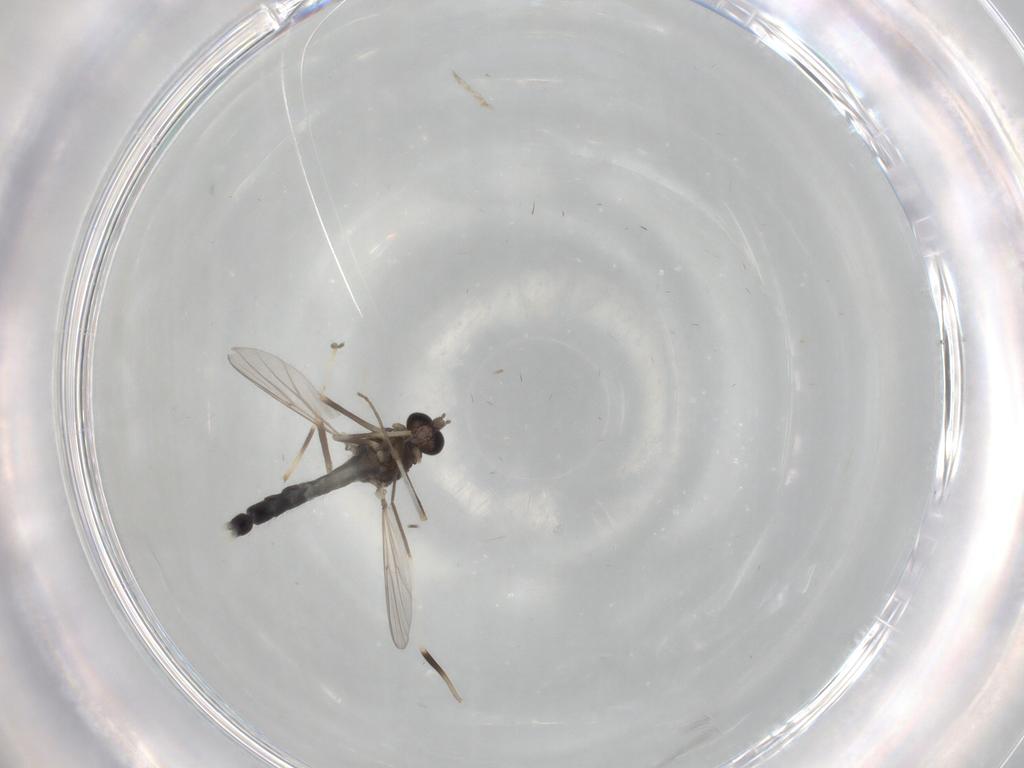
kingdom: Animalia
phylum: Arthropoda
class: Insecta
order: Diptera
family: Chironomidae
